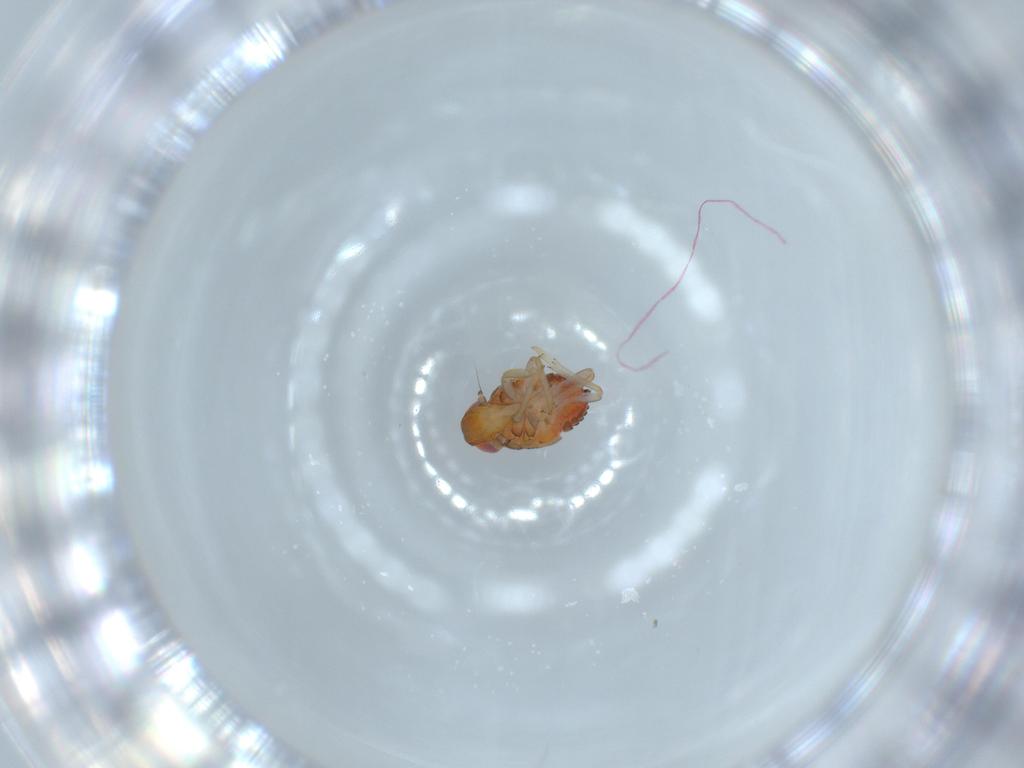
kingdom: Animalia
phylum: Arthropoda
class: Insecta
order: Hemiptera
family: Issidae
